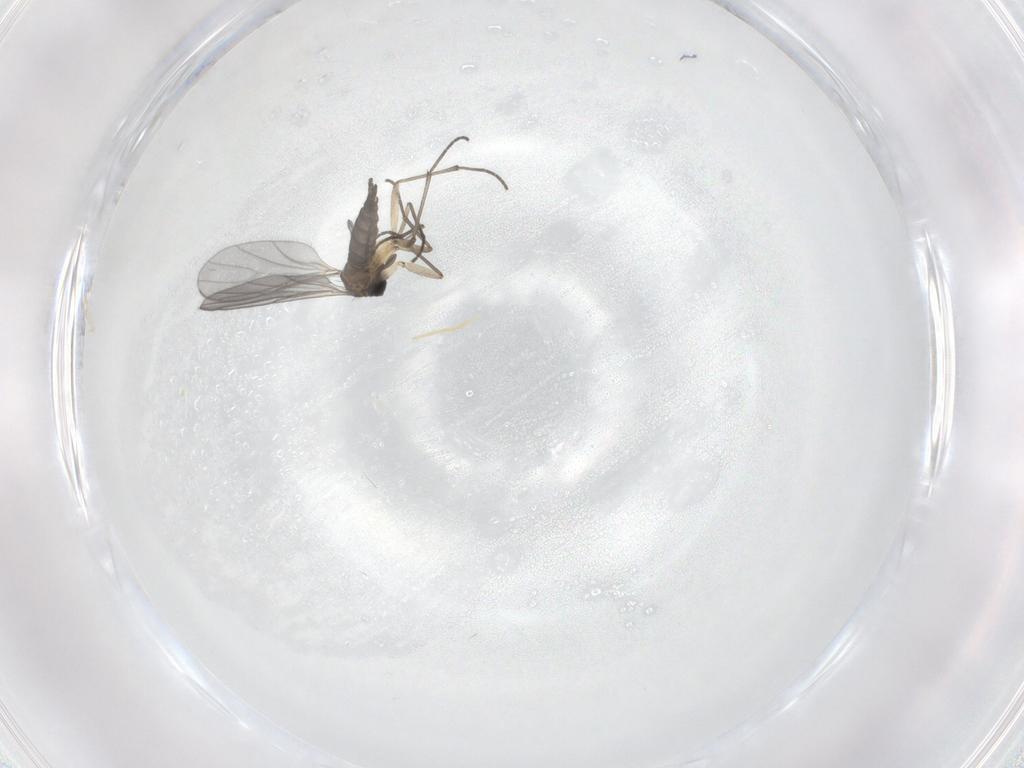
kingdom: Animalia
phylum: Arthropoda
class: Insecta
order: Diptera
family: Sciaridae
